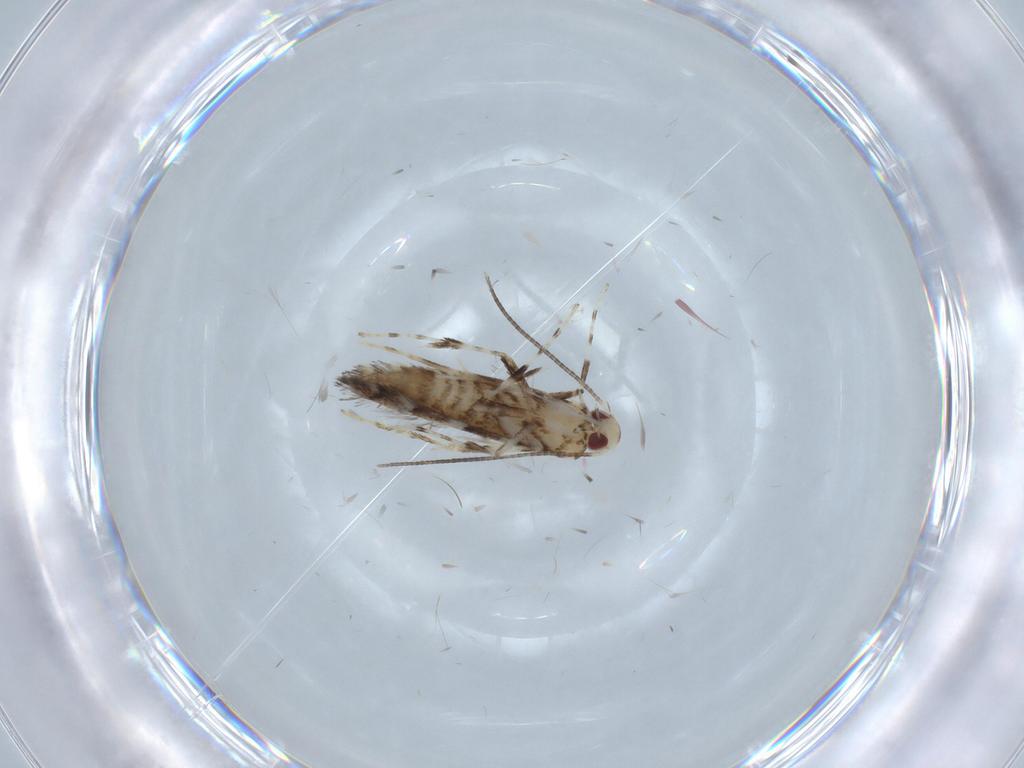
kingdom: Animalia
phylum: Arthropoda
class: Insecta
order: Lepidoptera
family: Gracillariidae
